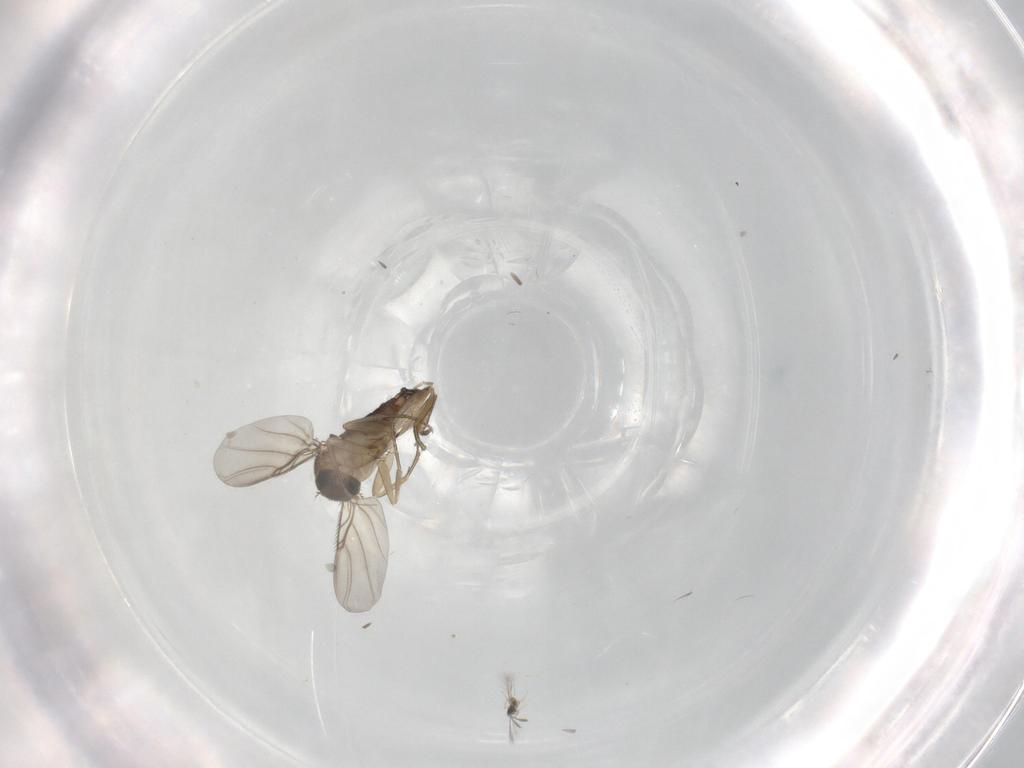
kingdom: Animalia
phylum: Arthropoda
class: Insecta
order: Diptera
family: Phoridae
